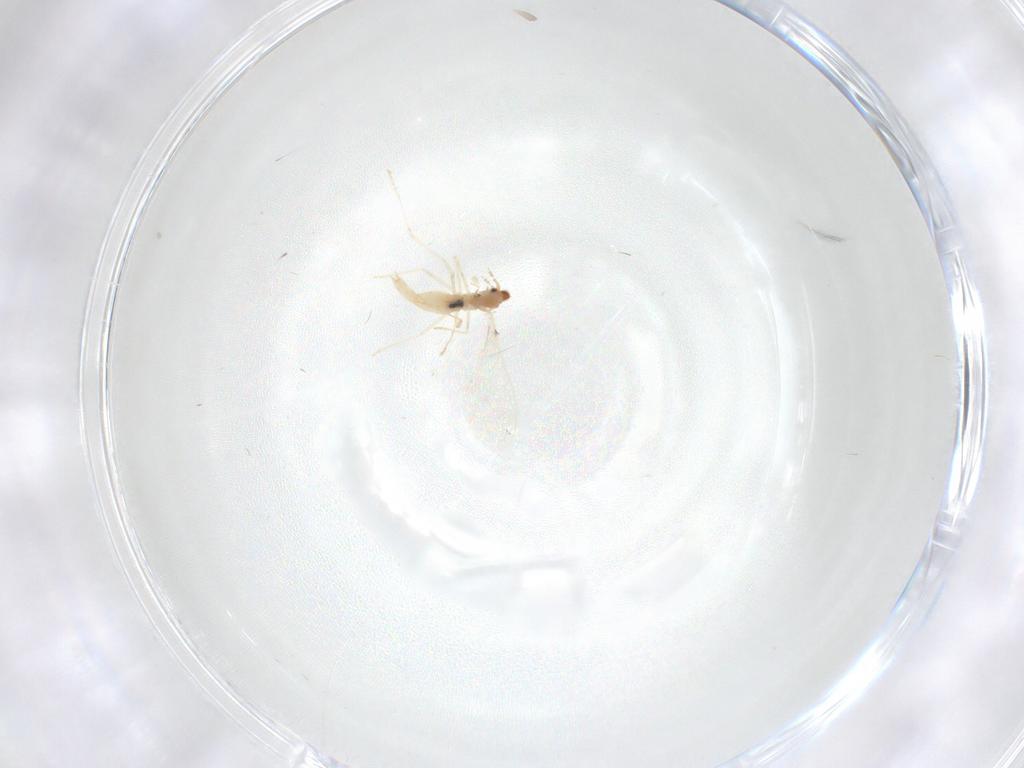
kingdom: Animalia
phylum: Arthropoda
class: Insecta
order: Diptera
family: Cecidomyiidae
